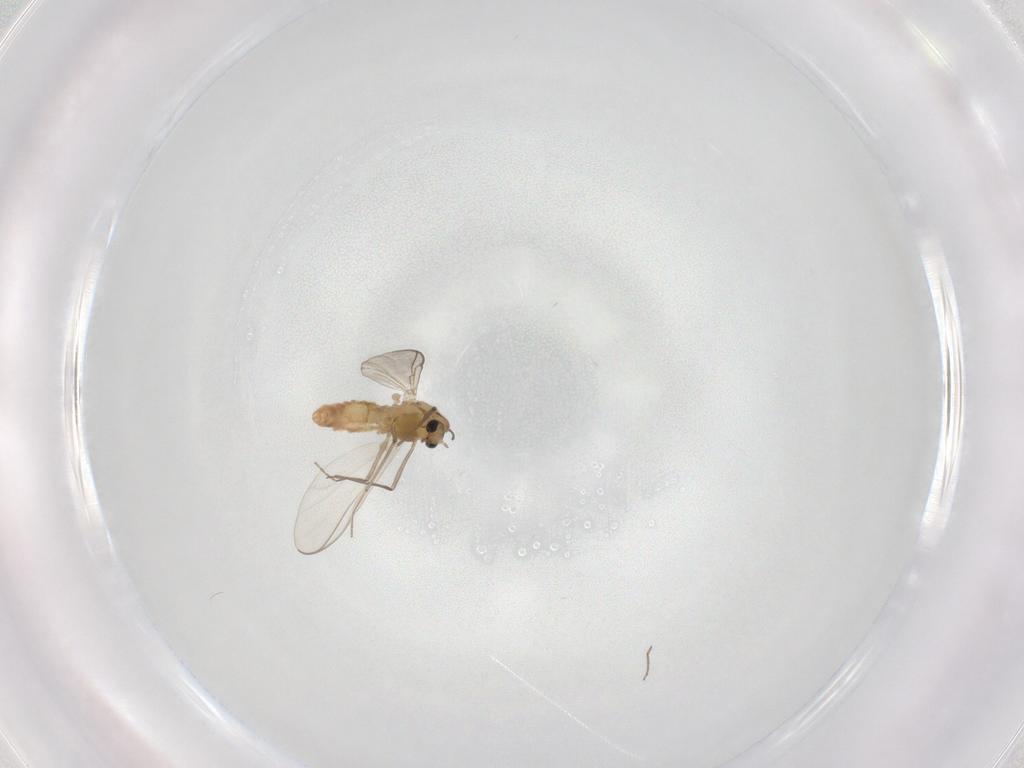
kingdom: Animalia
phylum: Arthropoda
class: Insecta
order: Diptera
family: Chironomidae
